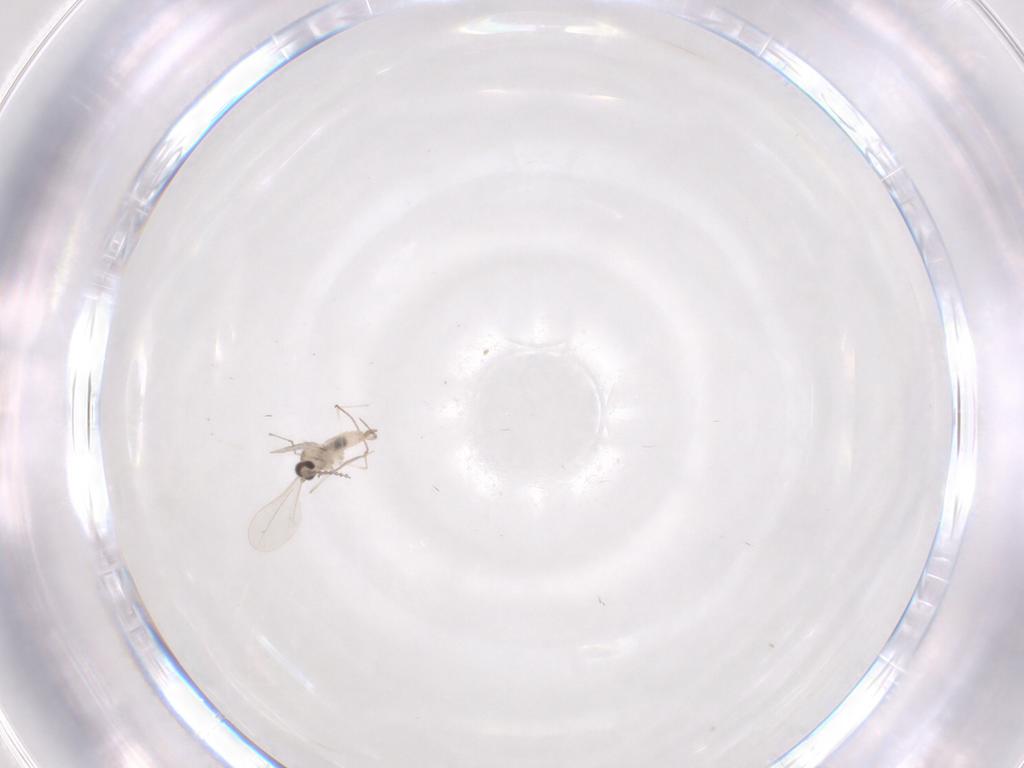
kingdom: Animalia
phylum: Arthropoda
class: Insecta
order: Diptera
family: Cecidomyiidae
